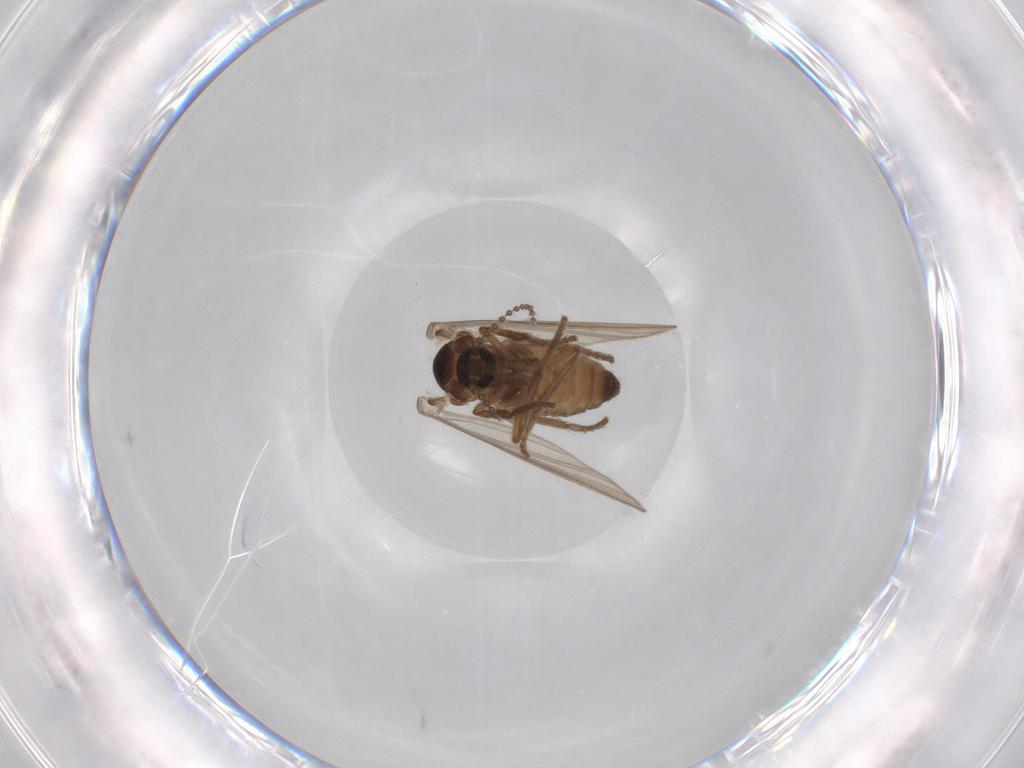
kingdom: Animalia
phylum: Arthropoda
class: Insecta
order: Diptera
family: Psychodidae
